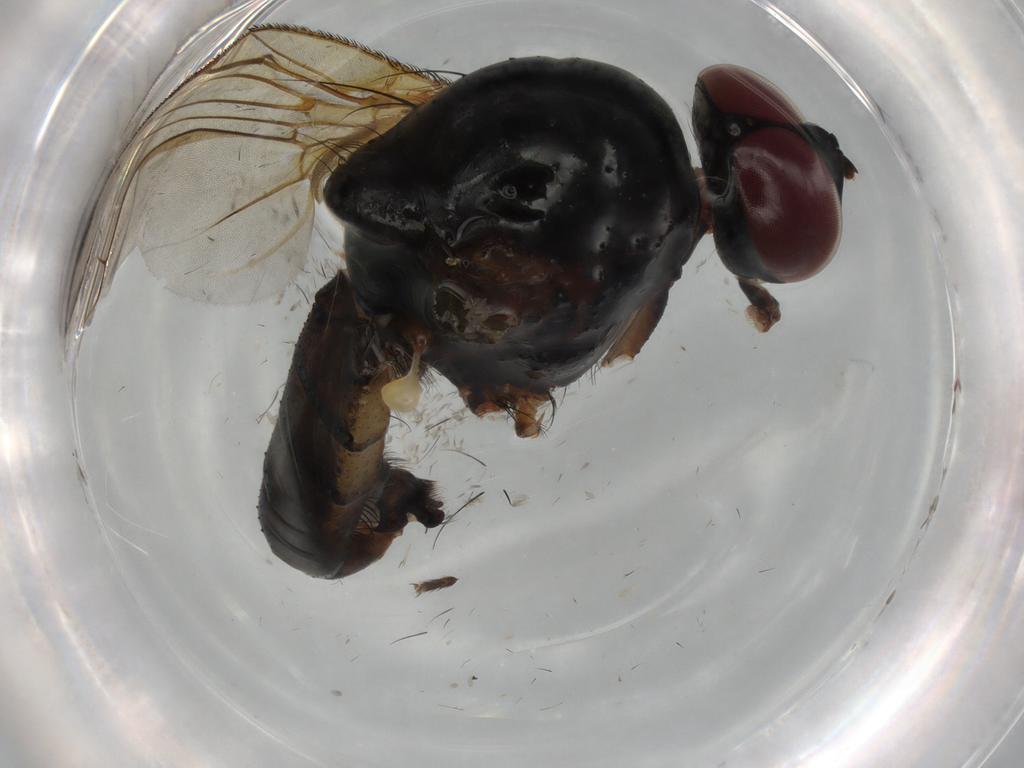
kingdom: Animalia
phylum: Arthropoda
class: Insecta
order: Diptera
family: Anthomyiidae
